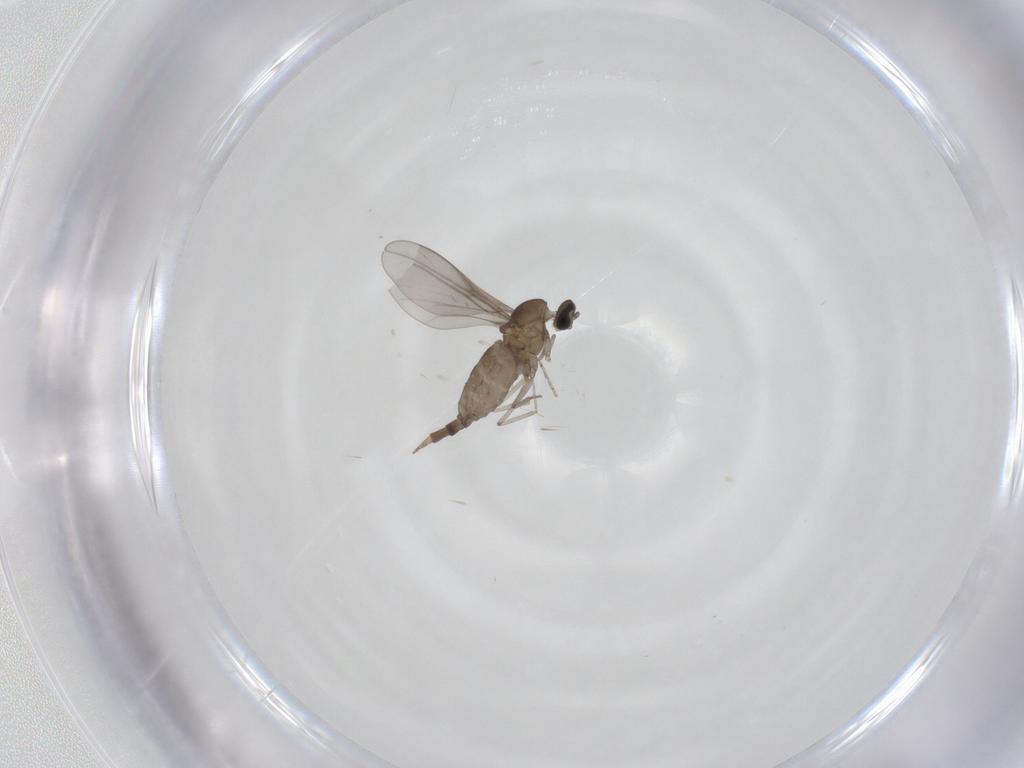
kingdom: Animalia
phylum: Arthropoda
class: Insecta
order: Diptera
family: Cecidomyiidae
